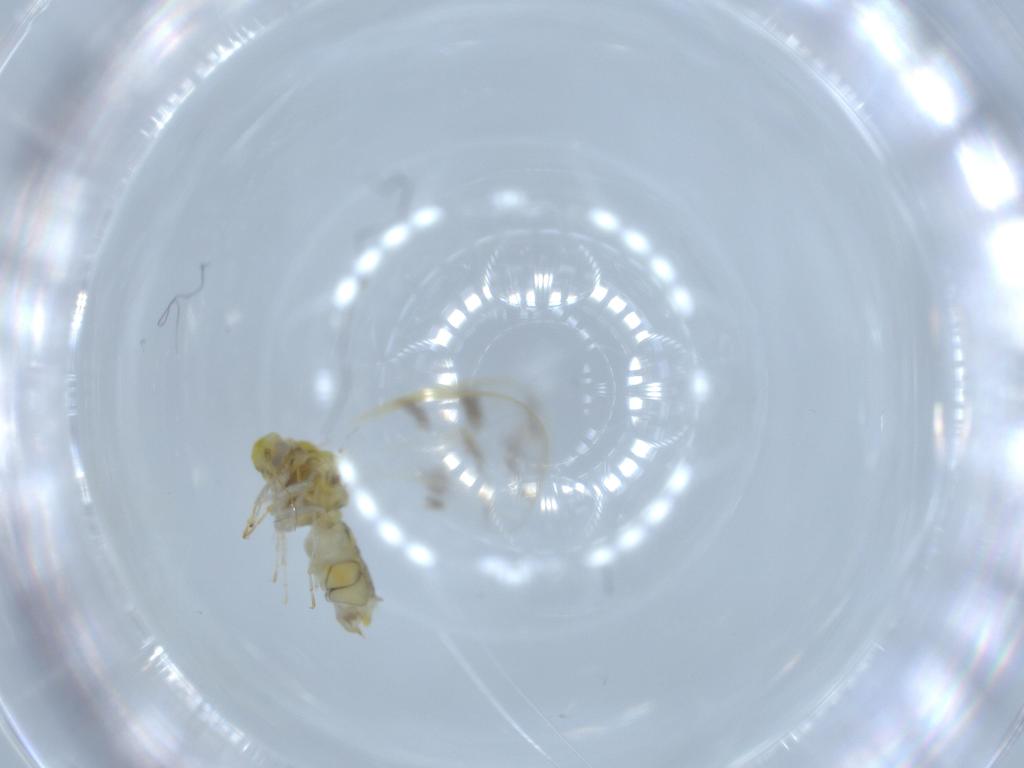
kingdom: Animalia
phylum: Arthropoda
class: Insecta
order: Hemiptera
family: Aleyrodidae
